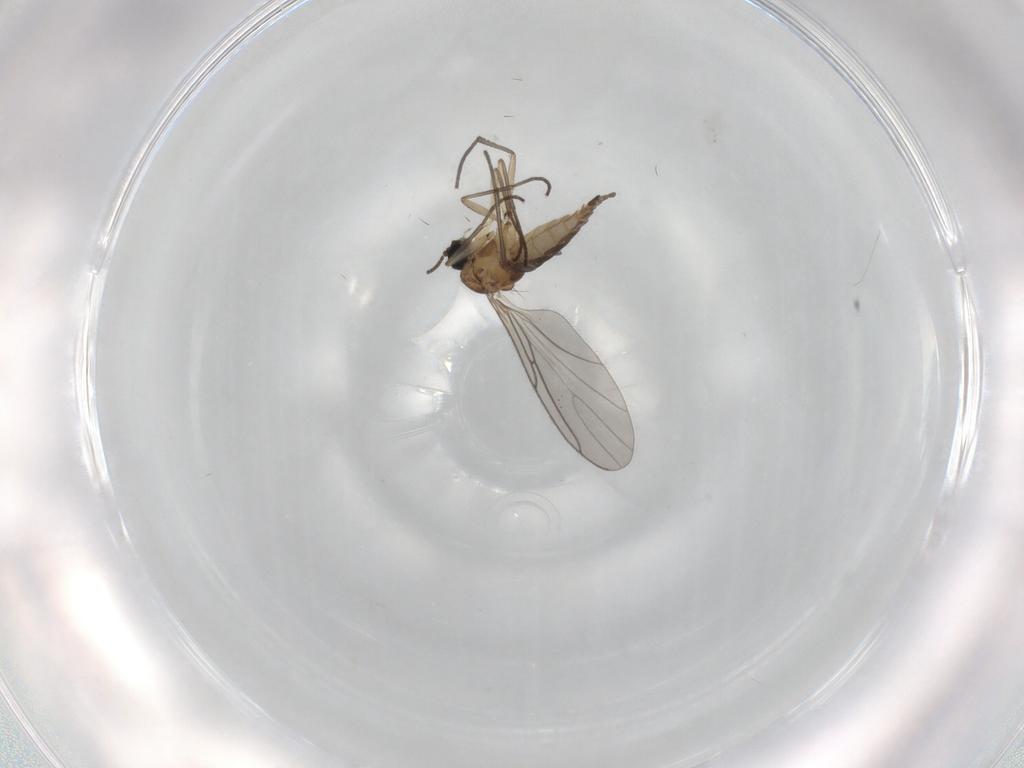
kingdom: Animalia
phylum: Arthropoda
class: Insecta
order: Diptera
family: Sciaridae
